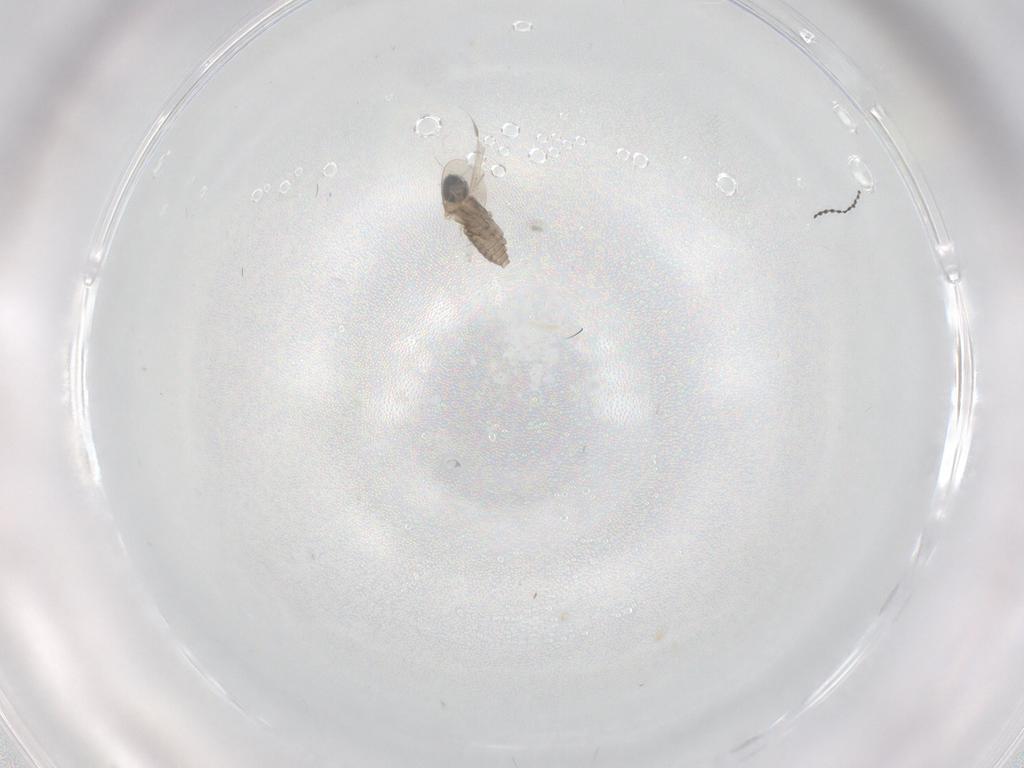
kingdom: Animalia
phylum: Arthropoda
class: Insecta
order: Diptera
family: Cecidomyiidae
